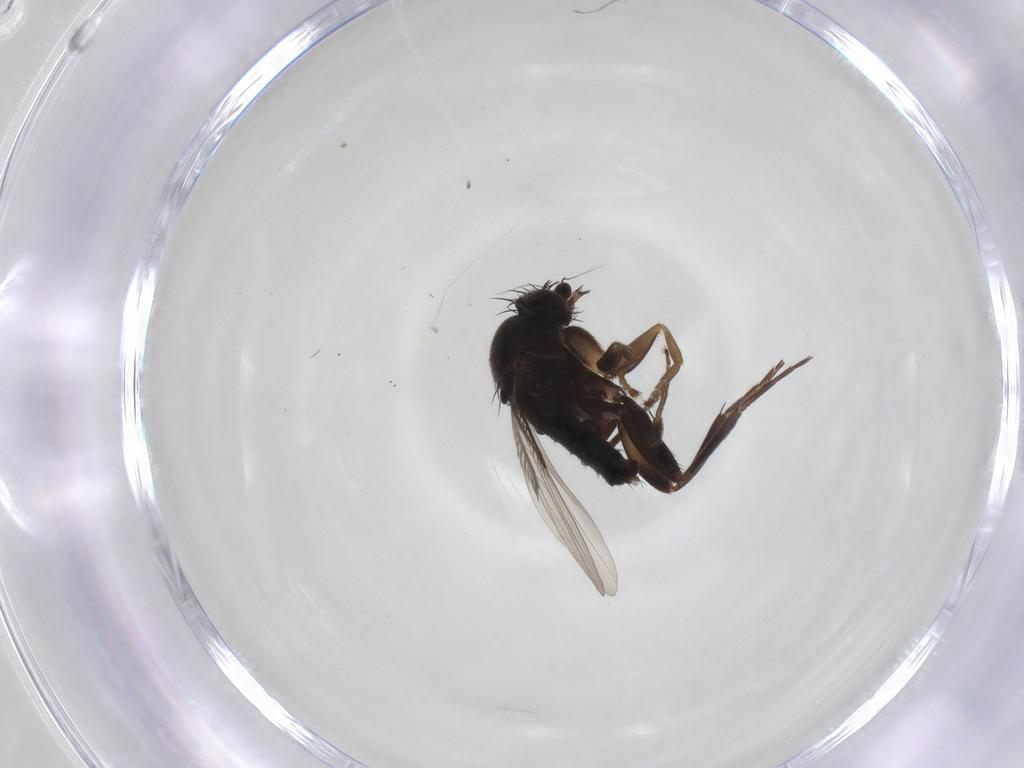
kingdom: Animalia
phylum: Arthropoda
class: Insecta
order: Diptera
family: Phoridae
